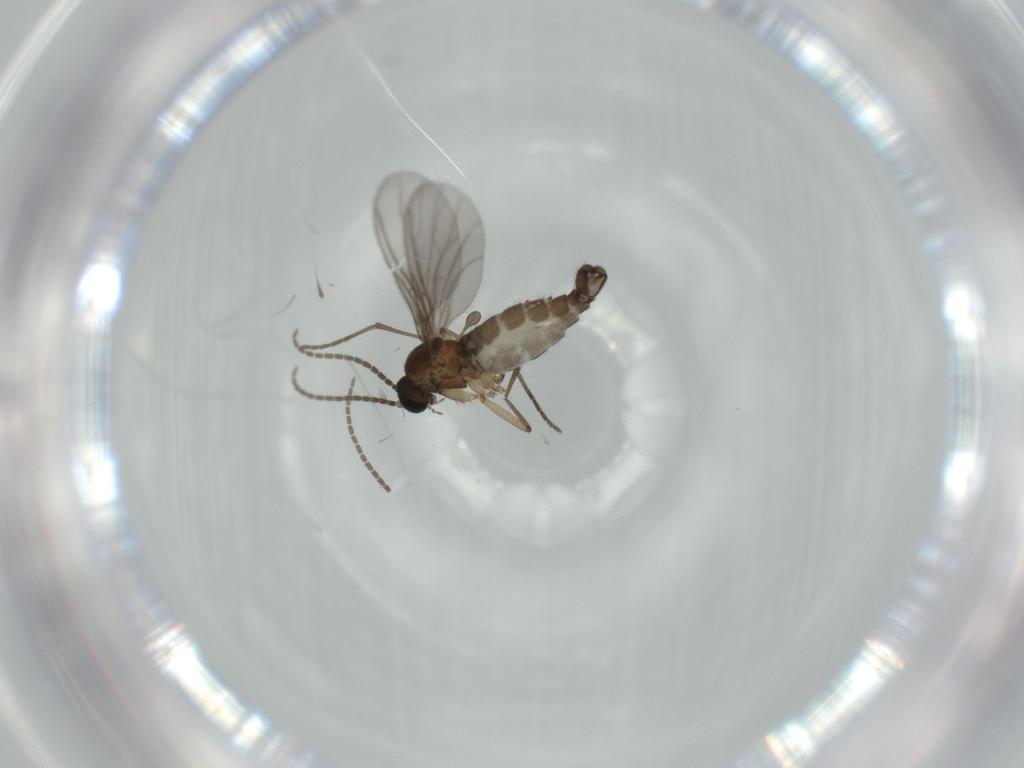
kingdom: Animalia
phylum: Arthropoda
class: Insecta
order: Diptera
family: Sciaridae
